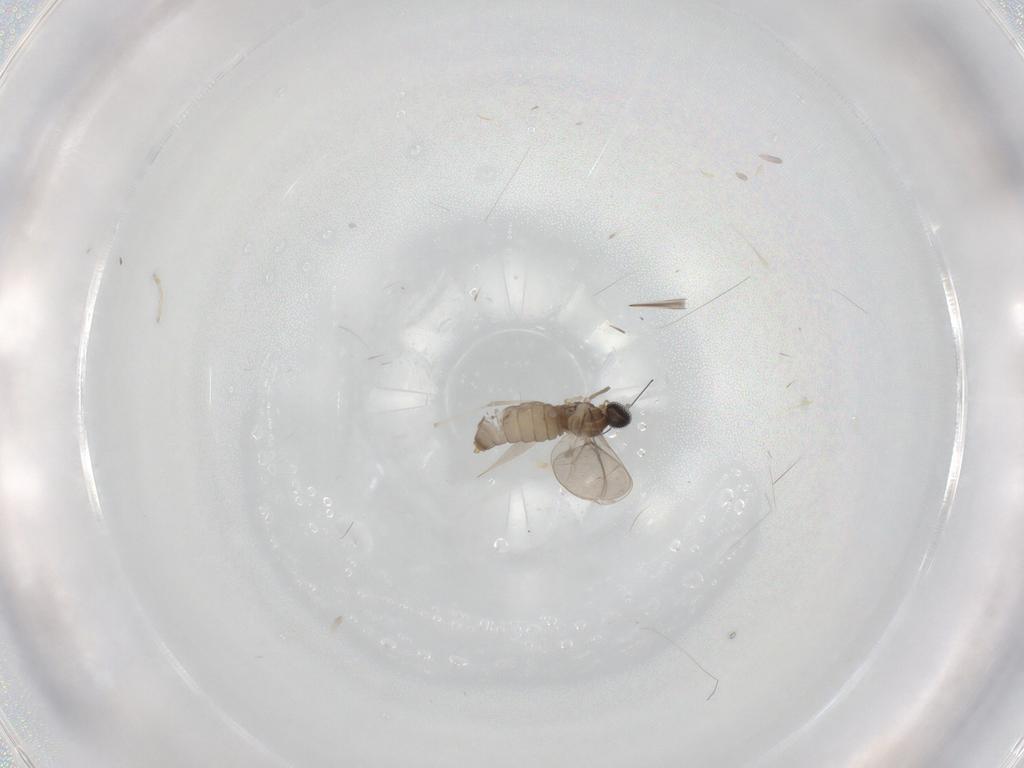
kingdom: Animalia
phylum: Arthropoda
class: Insecta
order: Diptera
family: Cecidomyiidae
